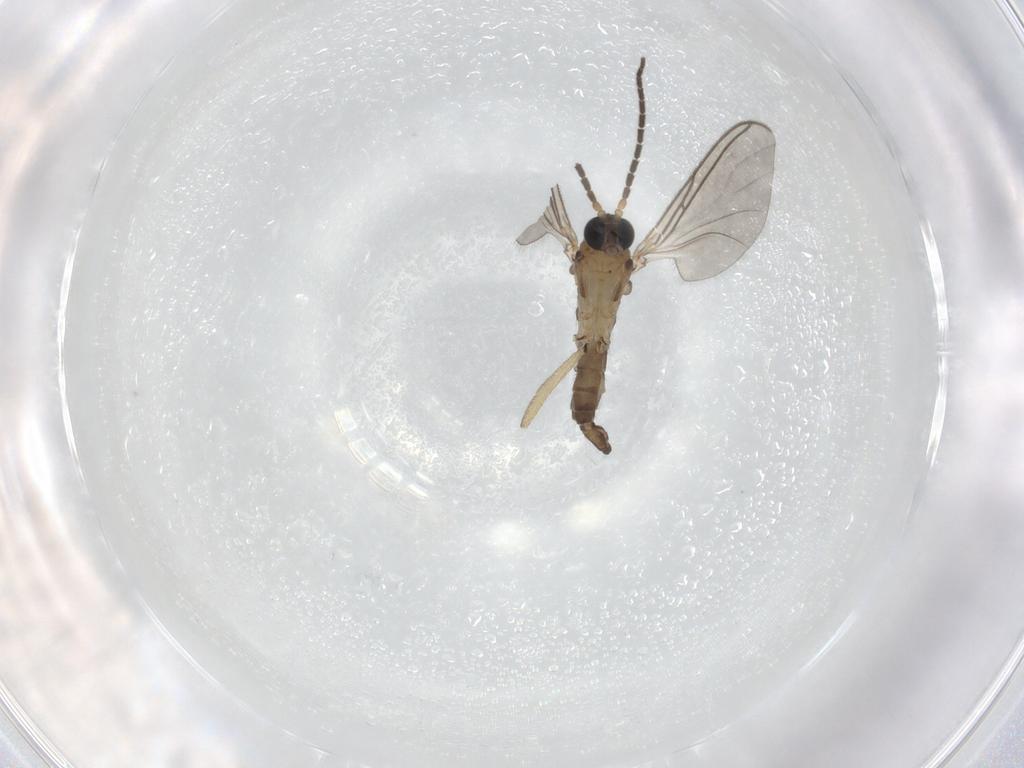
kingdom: Animalia
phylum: Arthropoda
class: Insecta
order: Diptera
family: Sciaridae
